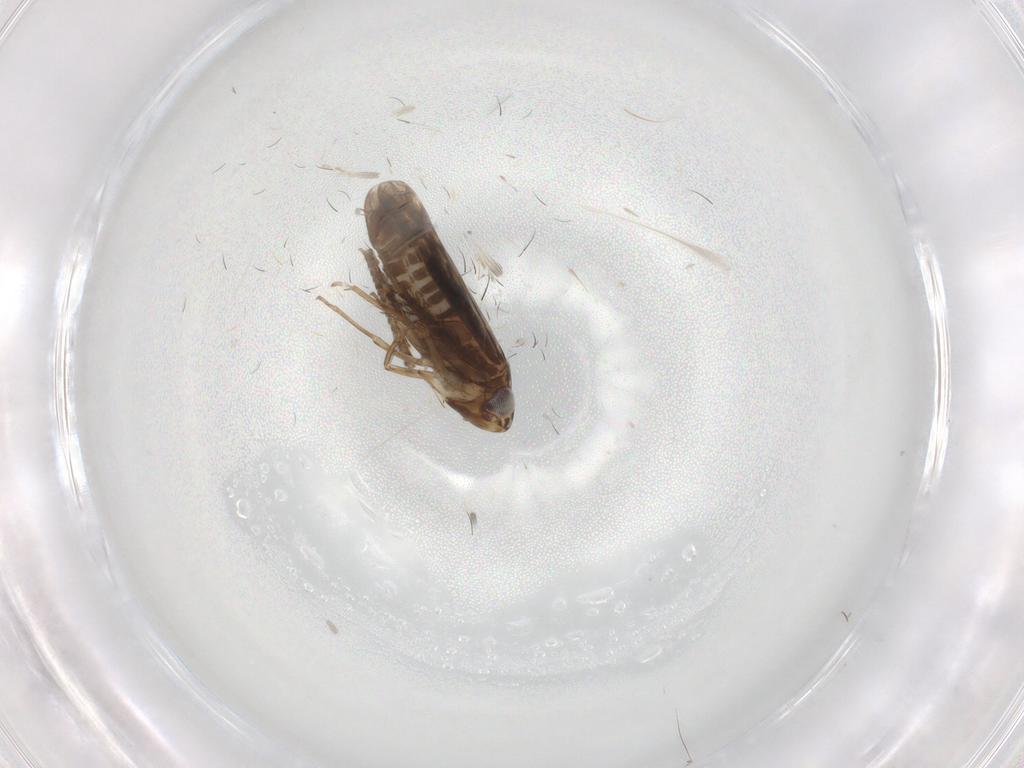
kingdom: Animalia
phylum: Arthropoda
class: Insecta
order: Hemiptera
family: Cicadellidae
